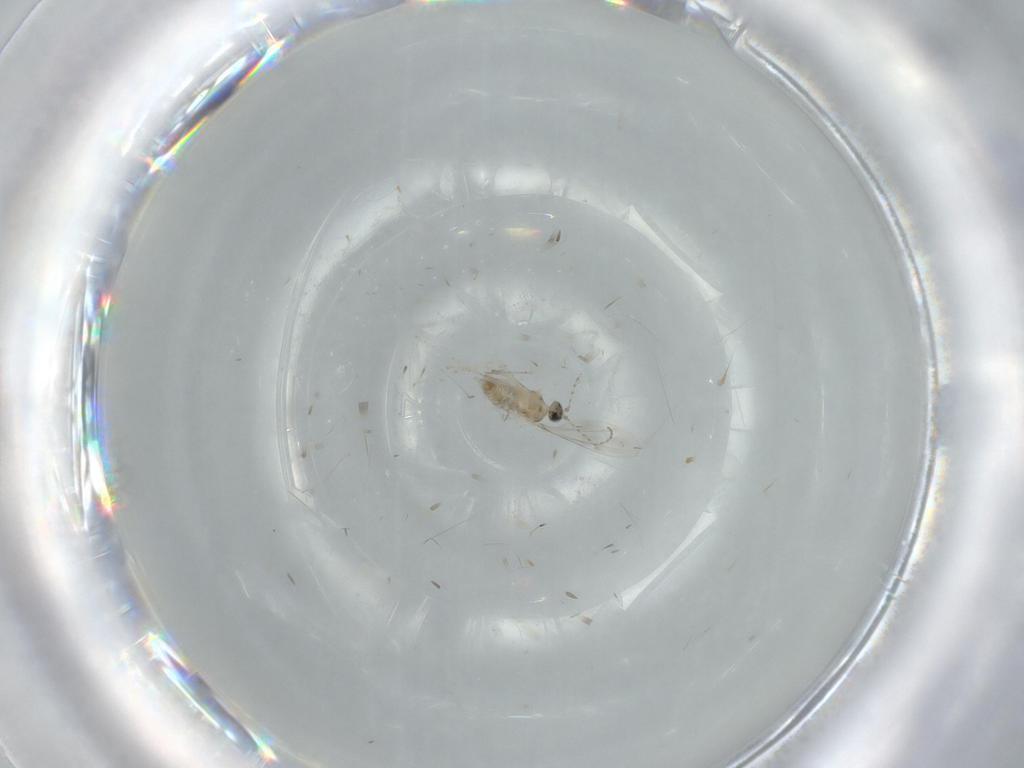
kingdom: Animalia
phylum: Arthropoda
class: Insecta
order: Diptera
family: Cecidomyiidae
